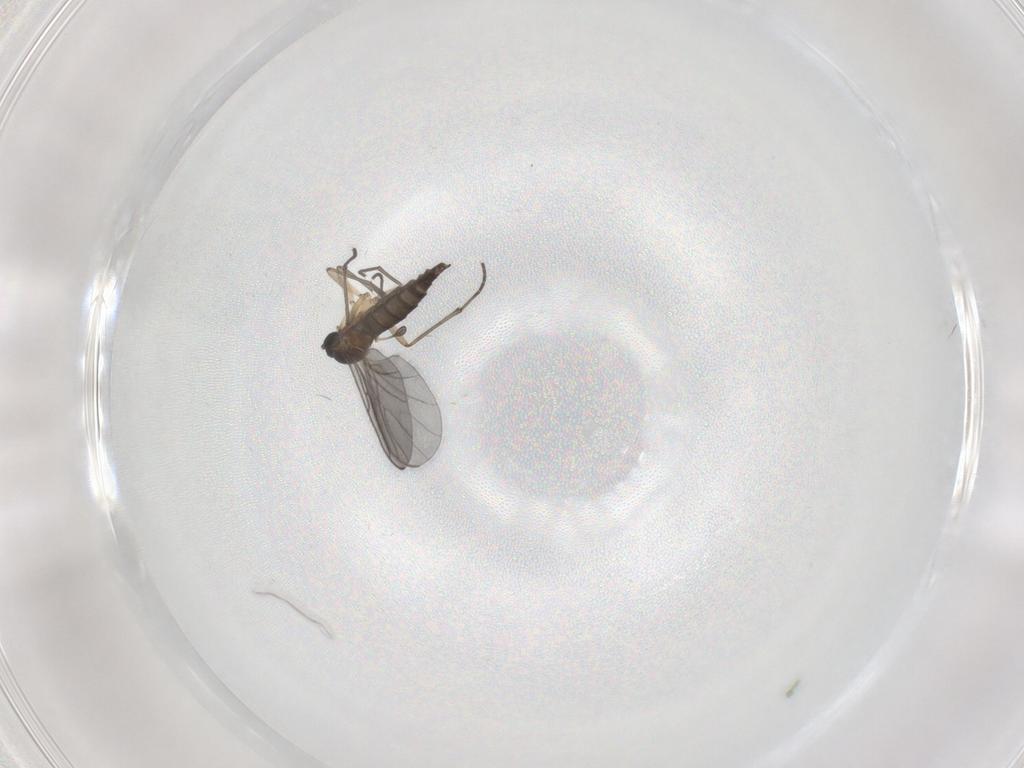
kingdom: Animalia
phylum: Arthropoda
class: Insecta
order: Diptera
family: Sciaridae
